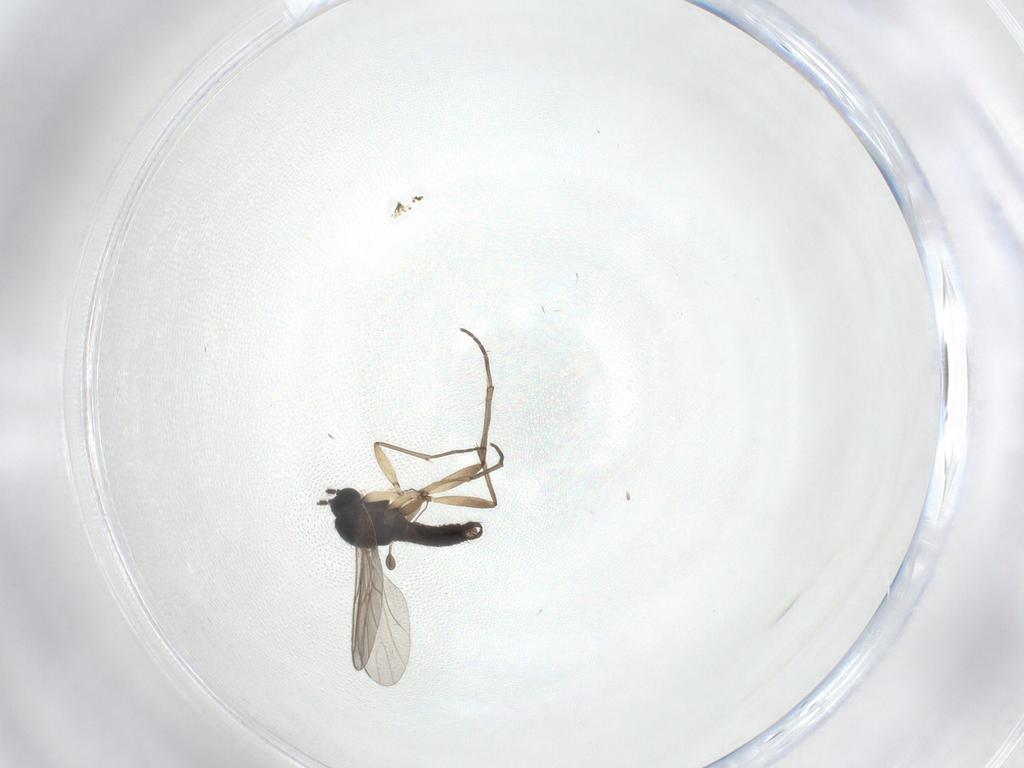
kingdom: Animalia
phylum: Arthropoda
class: Insecta
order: Diptera
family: Sciaridae
